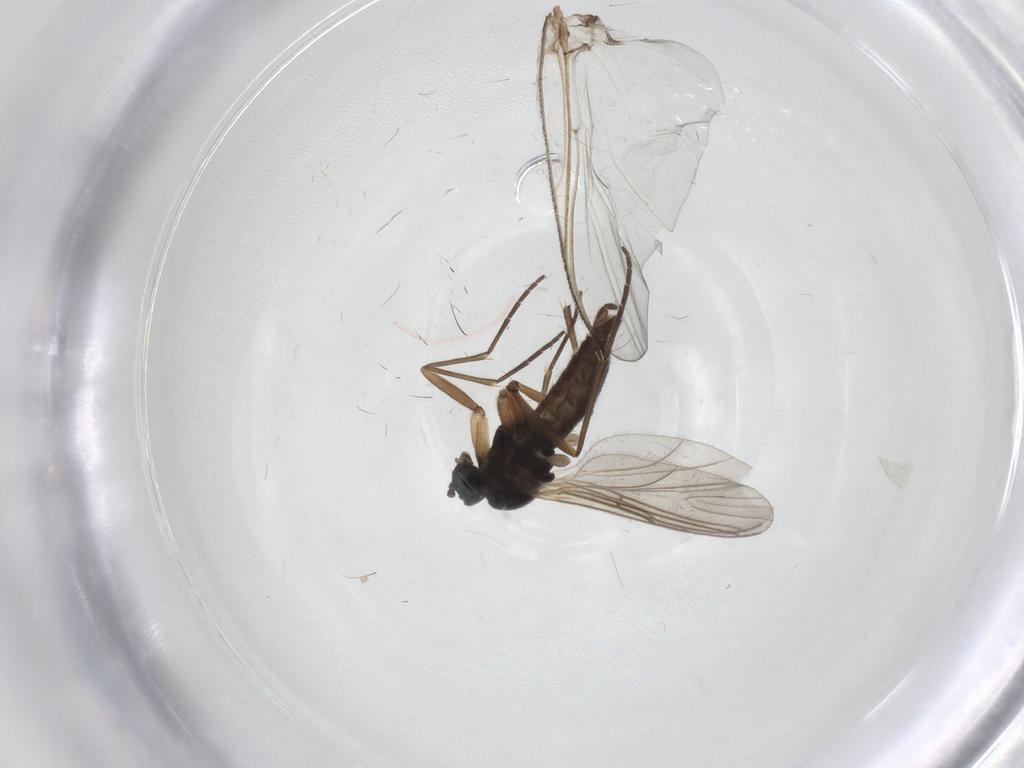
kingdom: Animalia
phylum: Arthropoda
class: Insecta
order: Diptera
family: Sciaridae
